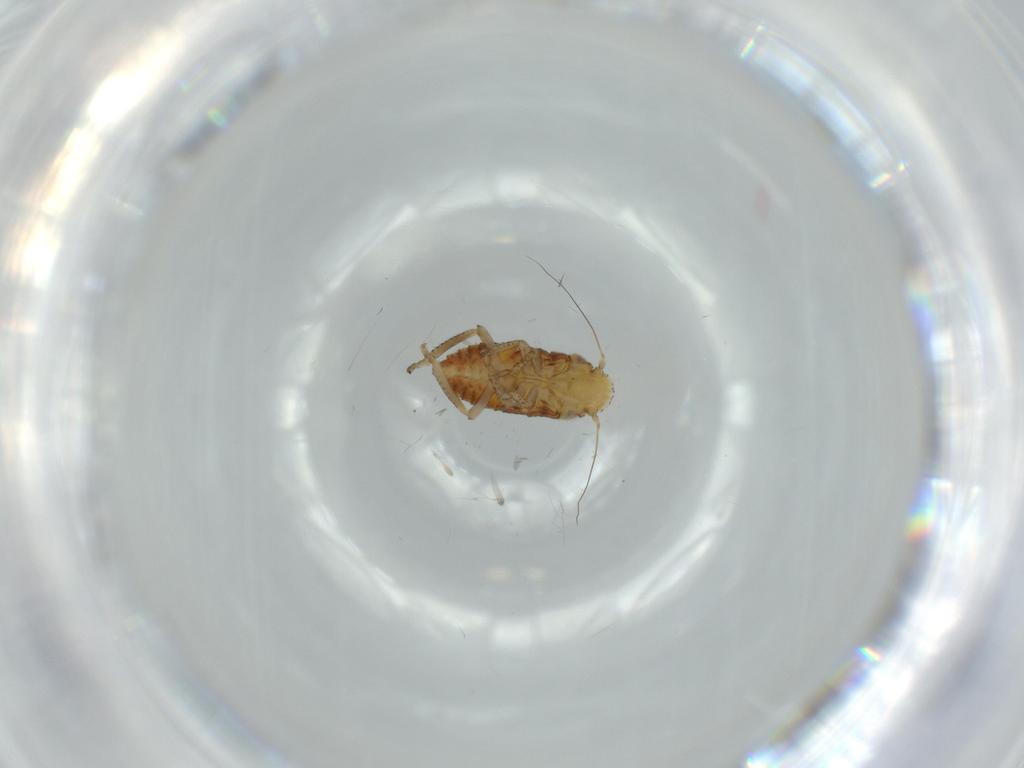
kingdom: Animalia
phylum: Arthropoda
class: Insecta
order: Hemiptera
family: Cicadellidae
